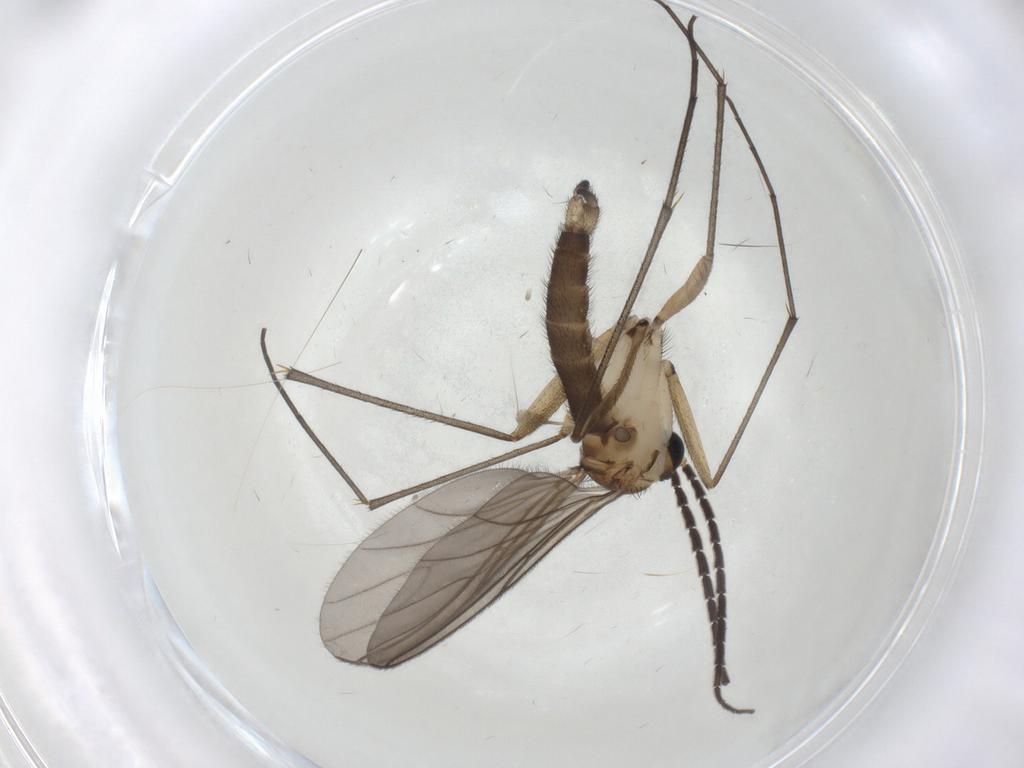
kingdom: Animalia
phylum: Arthropoda
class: Insecta
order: Diptera
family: Sciaridae
